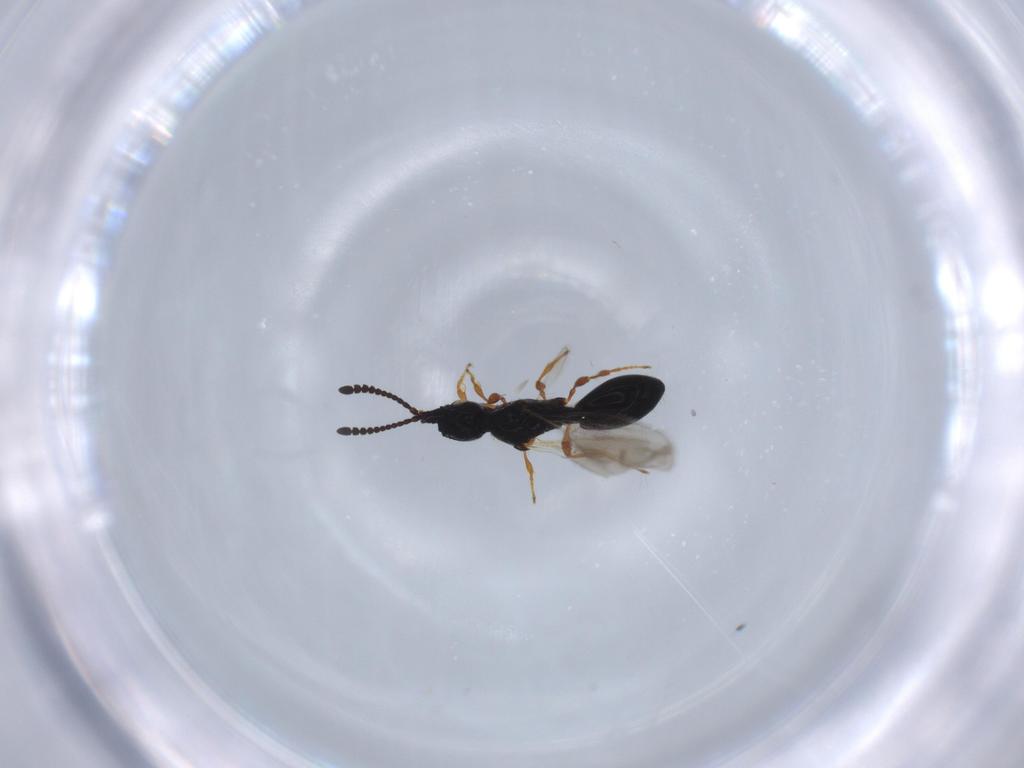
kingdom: Animalia
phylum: Arthropoda
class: Insecta
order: Hymenoptera
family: Diapriidae
